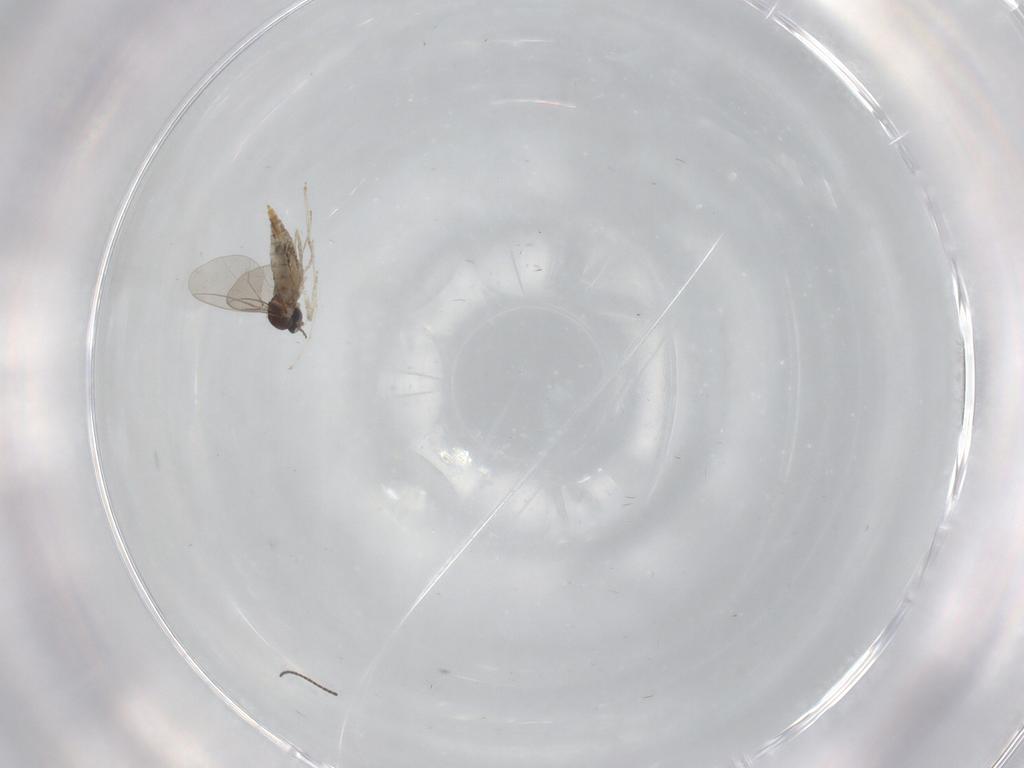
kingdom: Animalia
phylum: Arthropoda
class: Insecta
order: Diptera
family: Cecidomyiidae
